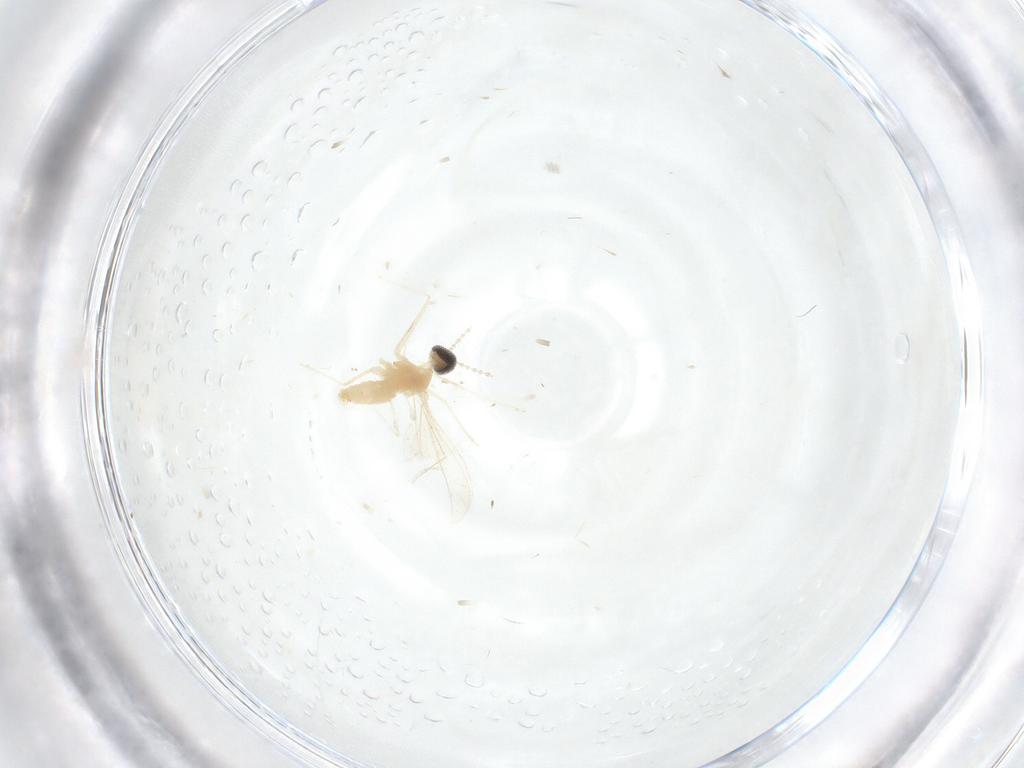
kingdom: Animalia
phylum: Arthropoda
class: Insecta
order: Diptera
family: Cecidomyiidae
